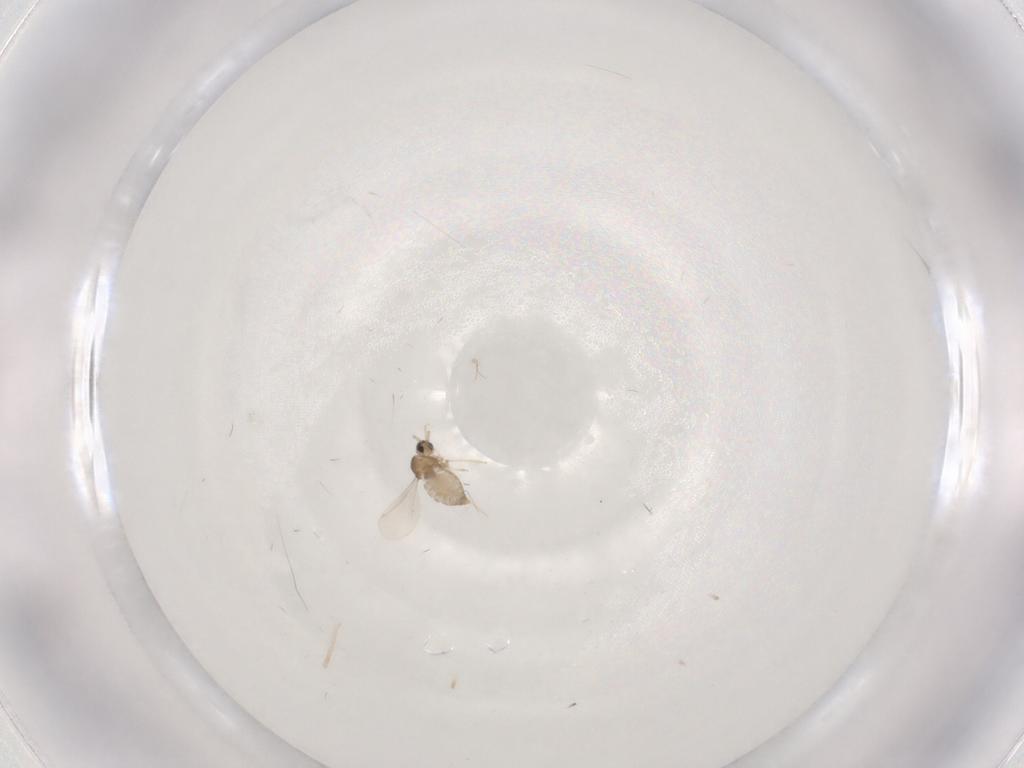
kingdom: Animalia
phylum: Arthropoda
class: Insecta
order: Diptera
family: Cecidomyiidae
